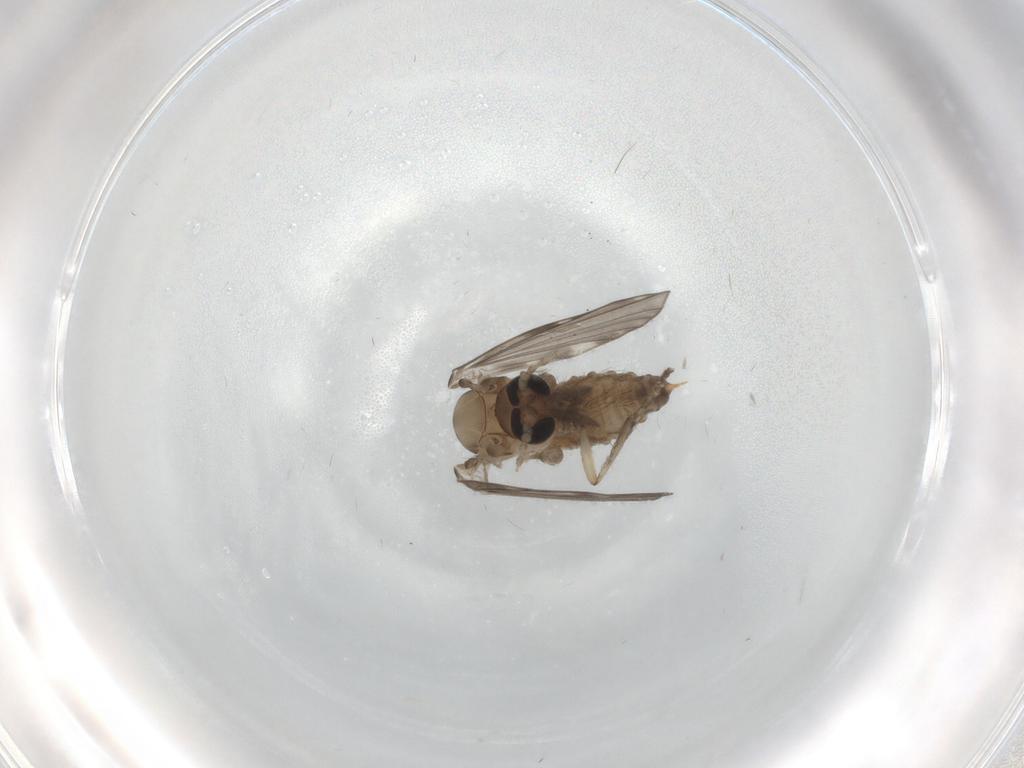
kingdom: Animalia
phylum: Arthropoda
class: Insecta
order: Diptera
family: Psychodidae
